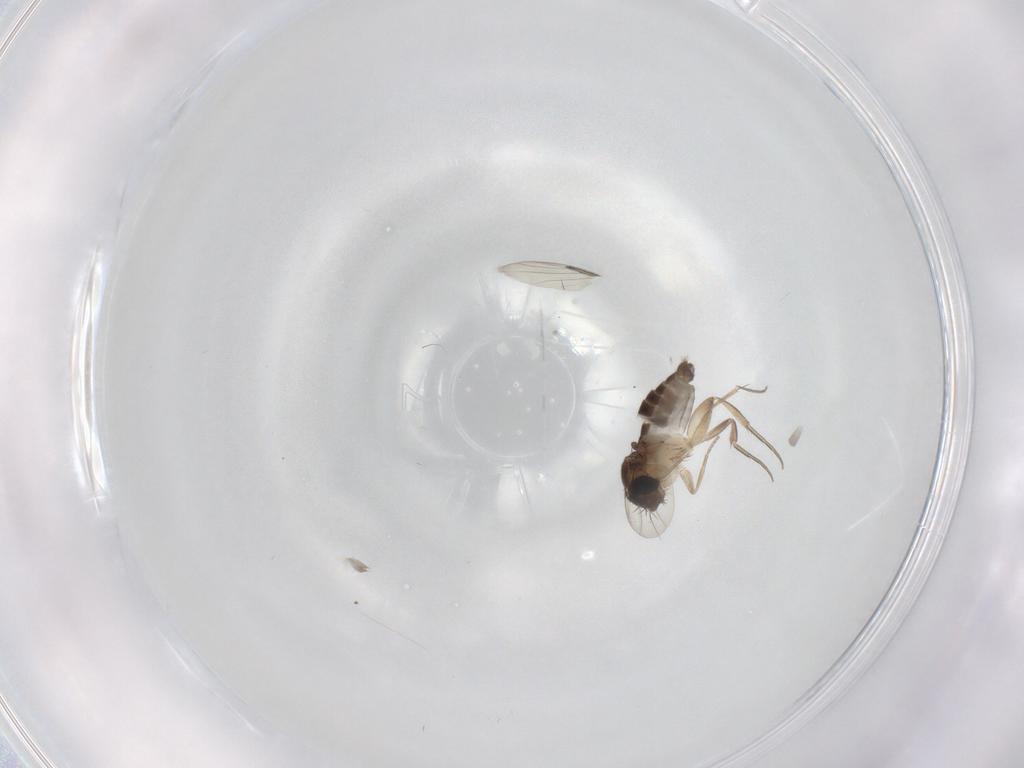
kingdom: Animalia
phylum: Arthropoda
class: Insecta
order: Diptera
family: Phoridae
